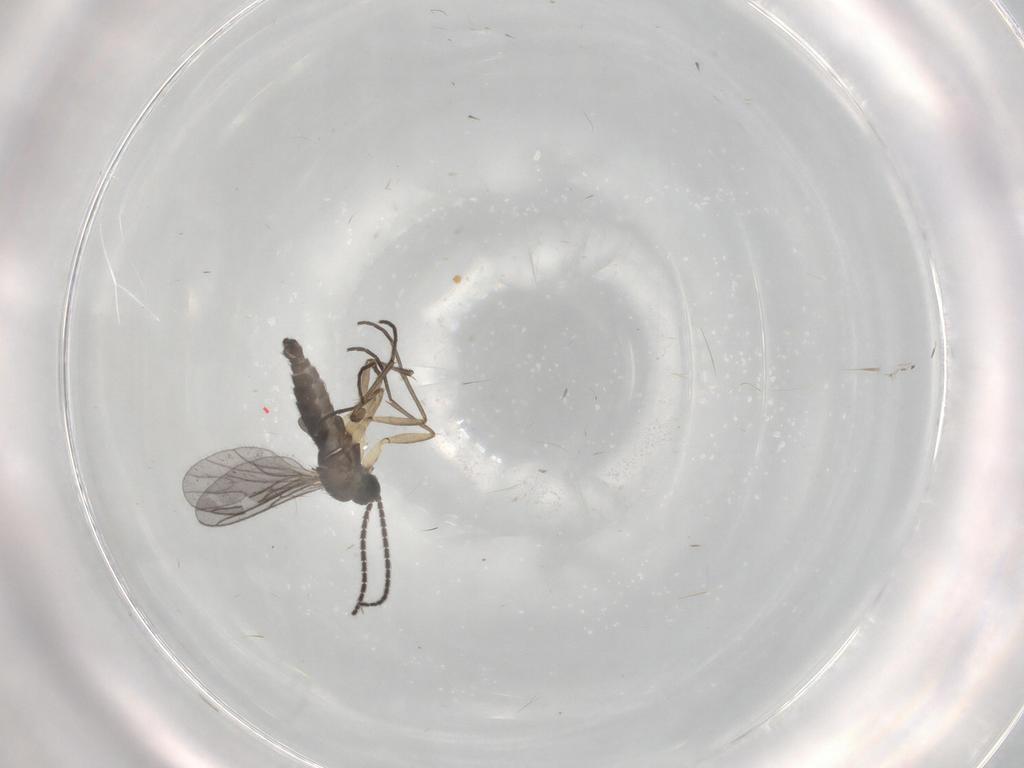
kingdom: Animalia
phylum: Arthropoda
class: Insecta
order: Diptera
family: Sciaridae
